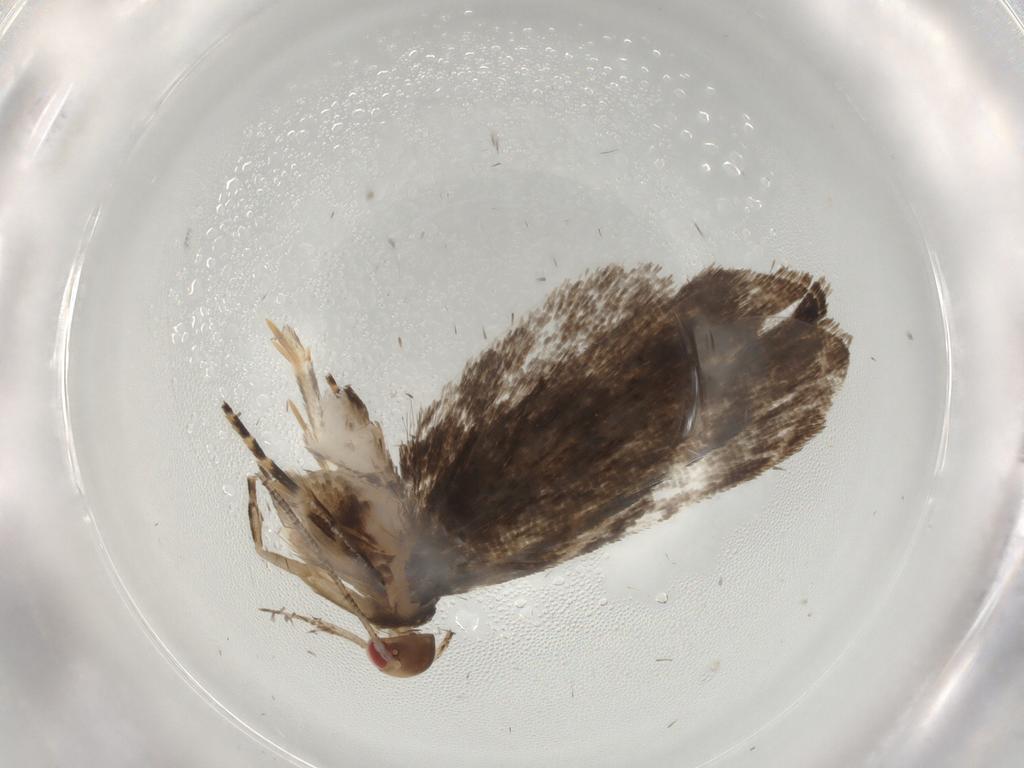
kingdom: Animalia
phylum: Arthropoda
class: Insecta
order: Lepidoptera
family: Gelechiidae
